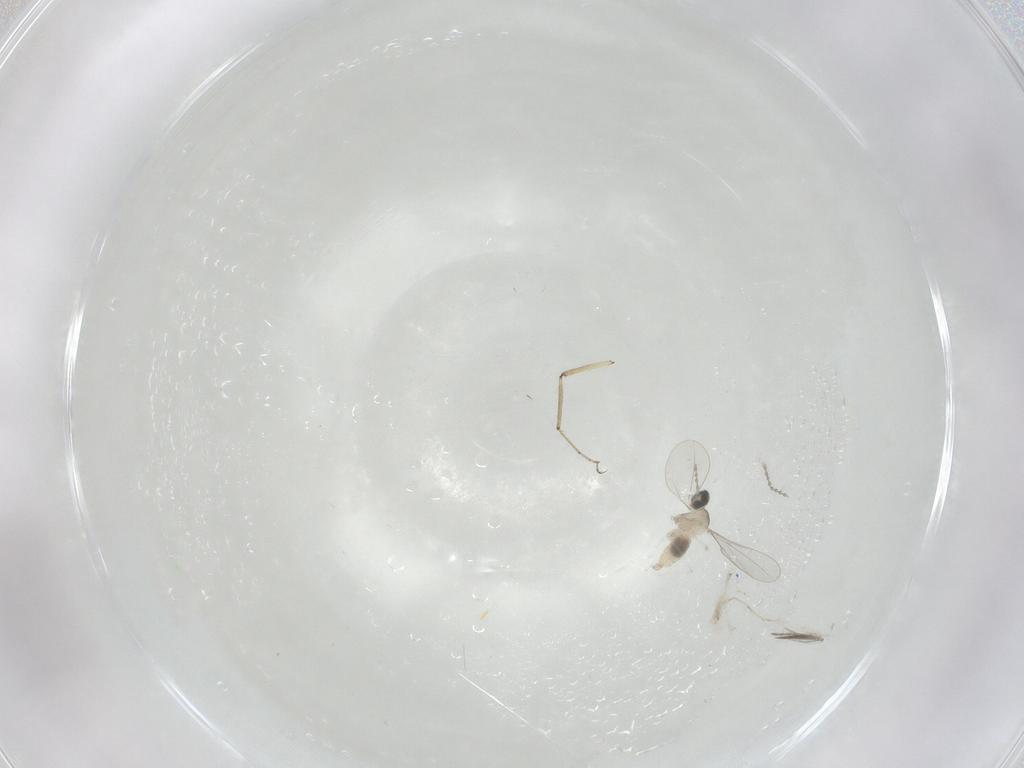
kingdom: Animalia
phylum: Arthropoda
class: Insecta
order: Diptera
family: Cecidomyiidae
